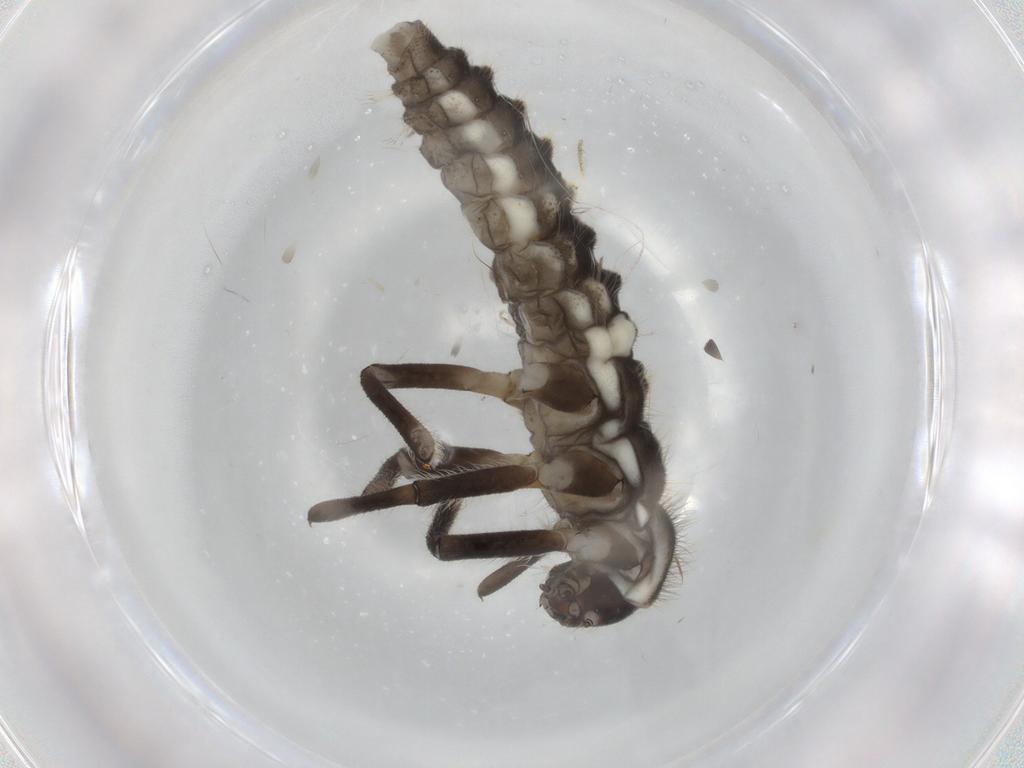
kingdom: Animalia
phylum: Arthropoda
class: Insecta
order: Coleoptera
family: Coccinellidae
